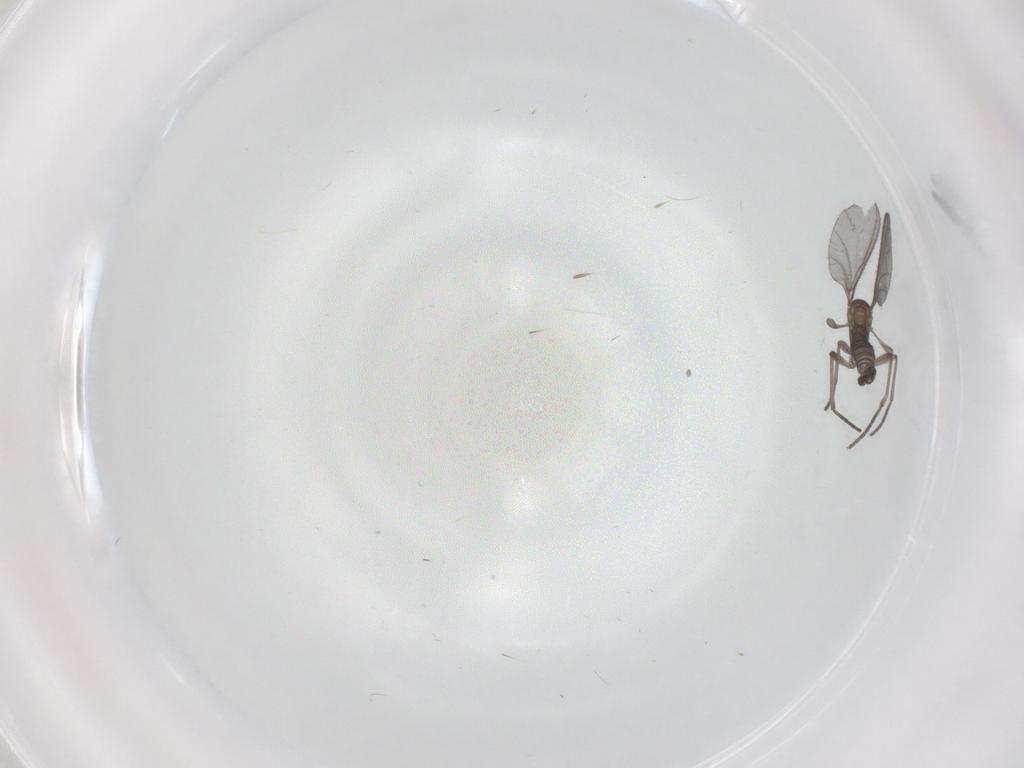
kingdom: Animalia
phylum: Arthropoda
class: Insecta
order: Diptera
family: Sciaridae
